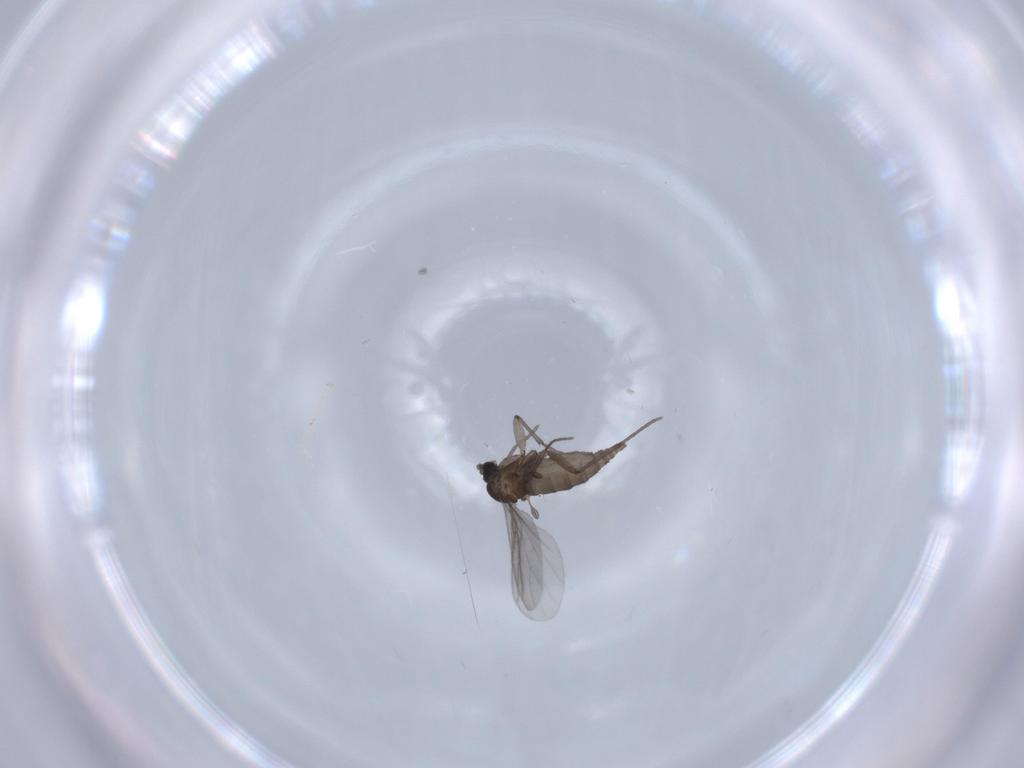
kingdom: Animalia
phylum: Arthropoda
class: Insecta
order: Diptera
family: Sciaridae
